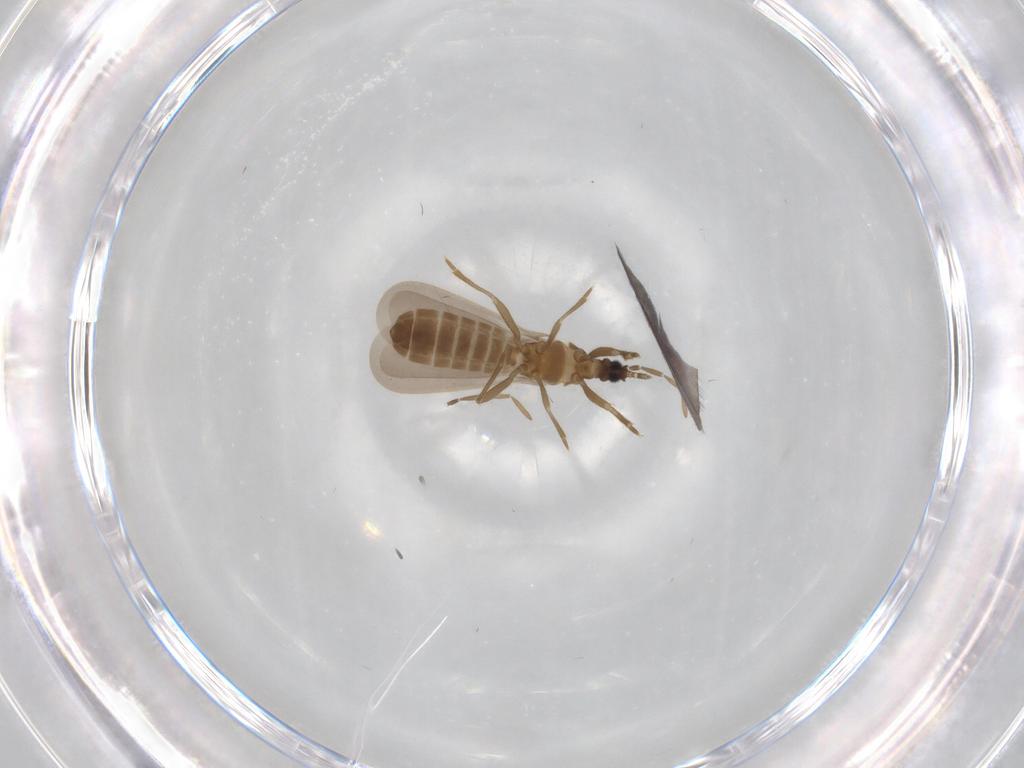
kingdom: Animalia
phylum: Arthropoda
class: Insecta
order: Hemiptera
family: Enicocephalidae
